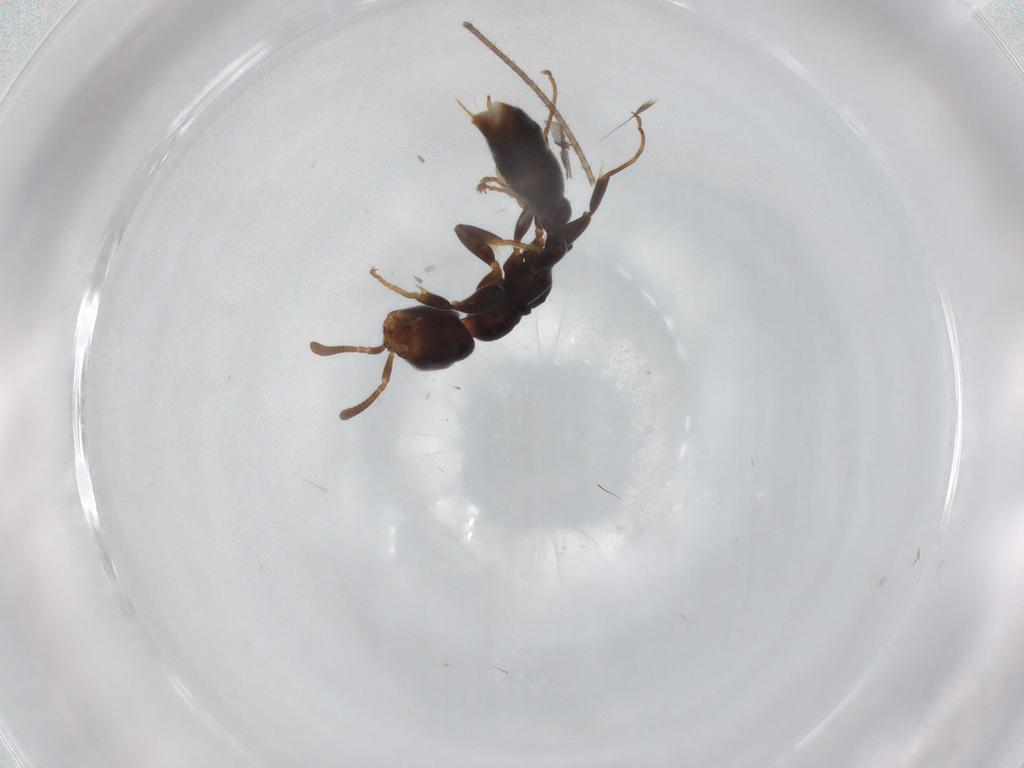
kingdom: Animalia
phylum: Arthropoda
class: Insecta
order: Hymenoptera
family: Formicidae
